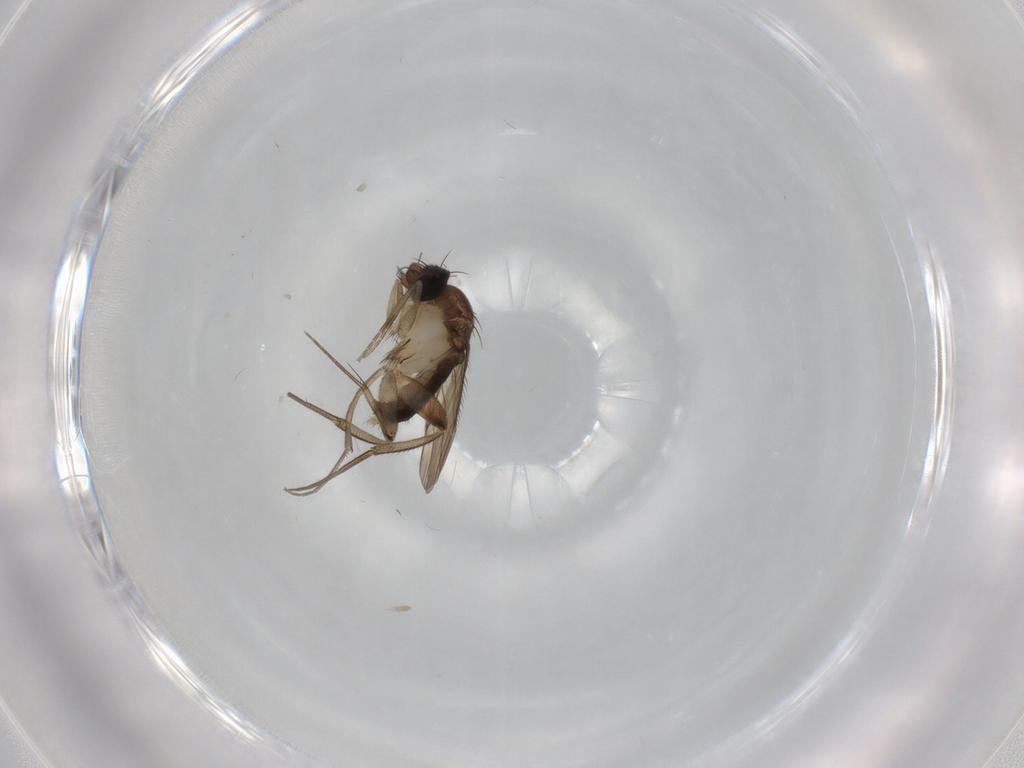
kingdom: Animalia
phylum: Arthropoda
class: Insecta
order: Diptera
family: Phoridae
